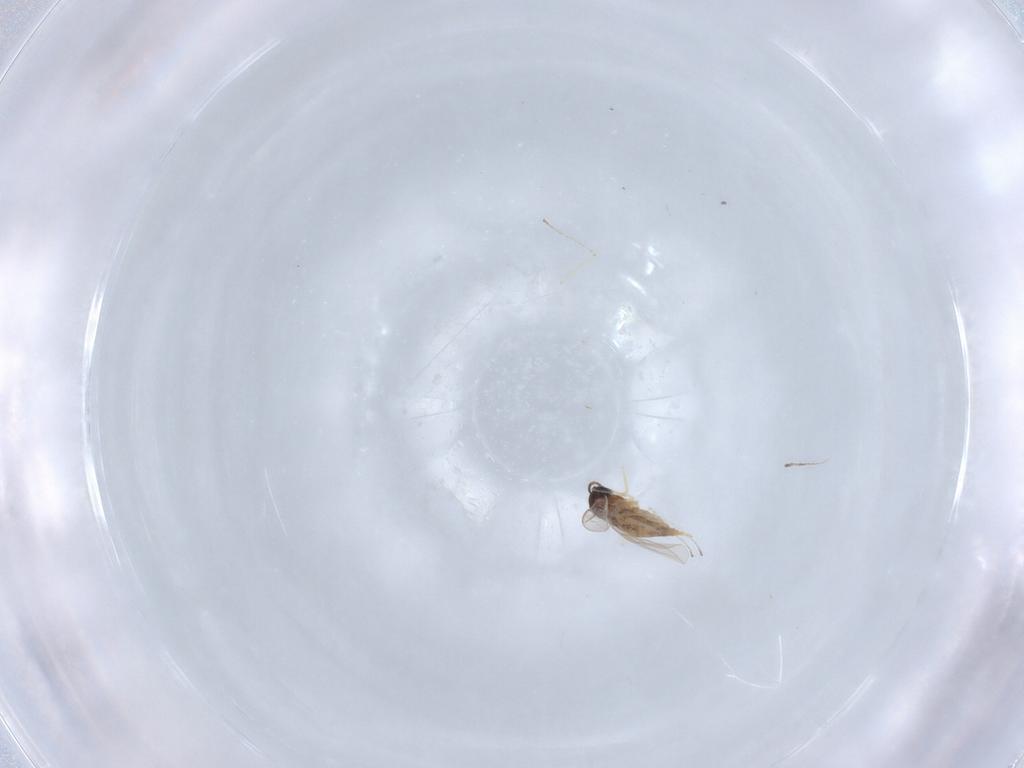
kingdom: Animalia
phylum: Arthropoda
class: Insecta
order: Diptera
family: Cecidomyiidae
